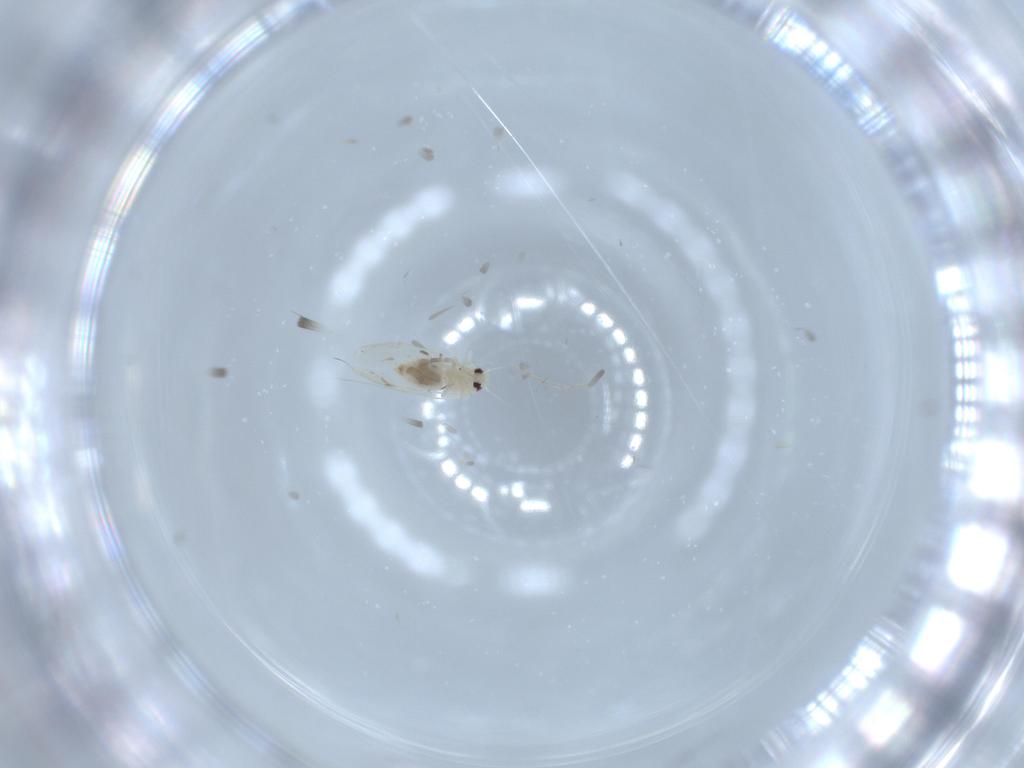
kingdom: Animalia
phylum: Arthropoda
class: Insecta
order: Hemiptera
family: Aleyrodidae
